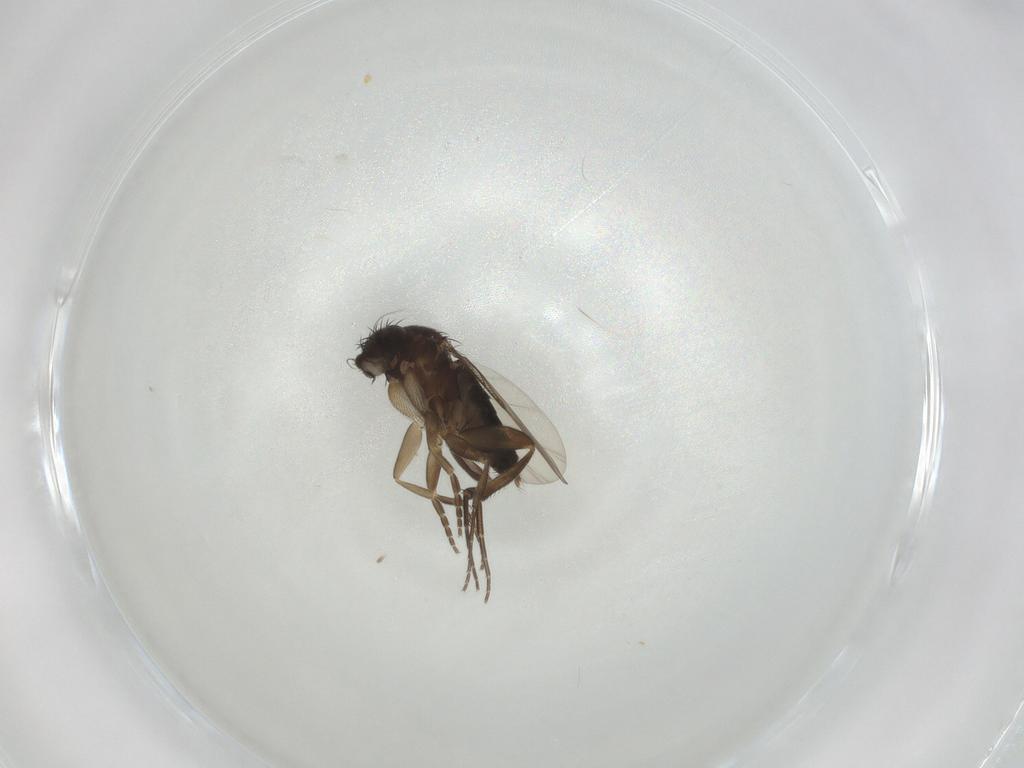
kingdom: Animalia
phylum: Arthropoda
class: Insecta
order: Diptera
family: Phoridae
